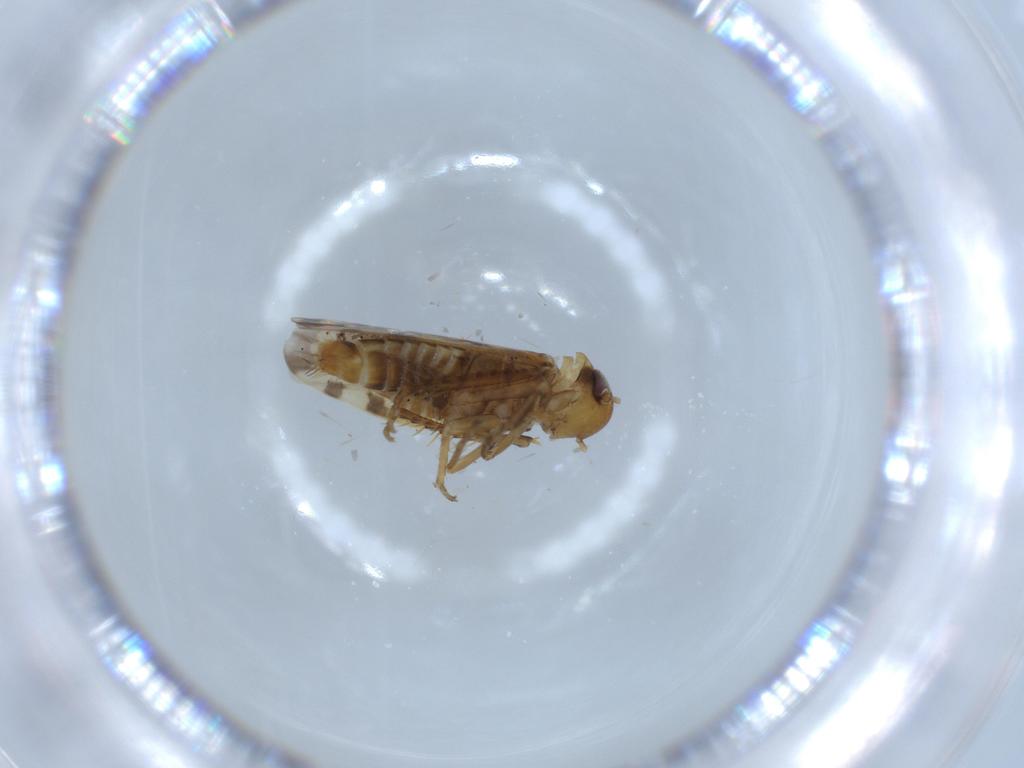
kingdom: Animalia
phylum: Arthropoda
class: Insecta
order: Hemiptera
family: Cicadellidae
